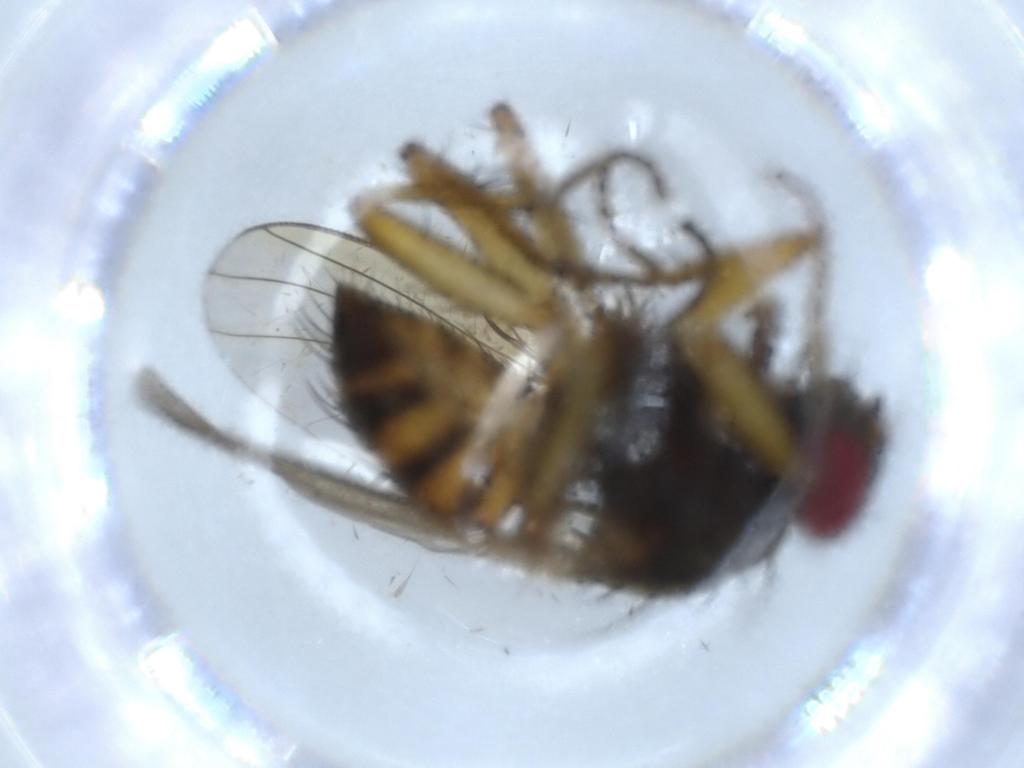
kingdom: Animalia
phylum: Arthropoda
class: Insecta
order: Diptera
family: Muscidae
